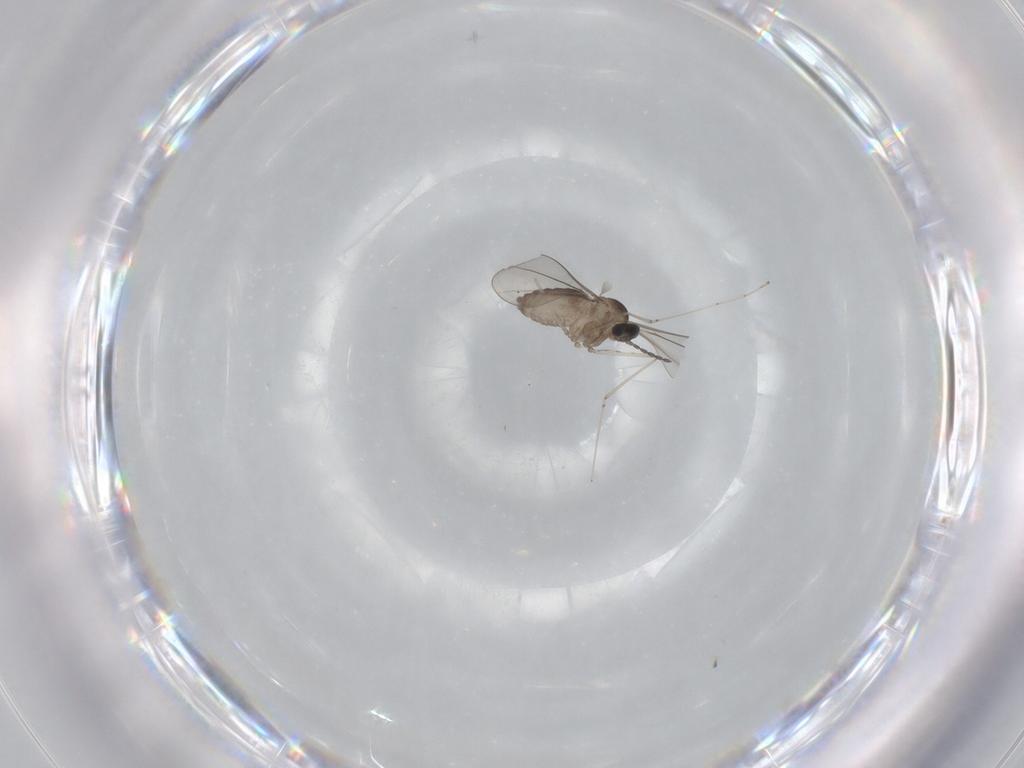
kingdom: Animalia
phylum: Arthropoda
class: Insecta
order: Diptera
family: Cecidomyiidae
